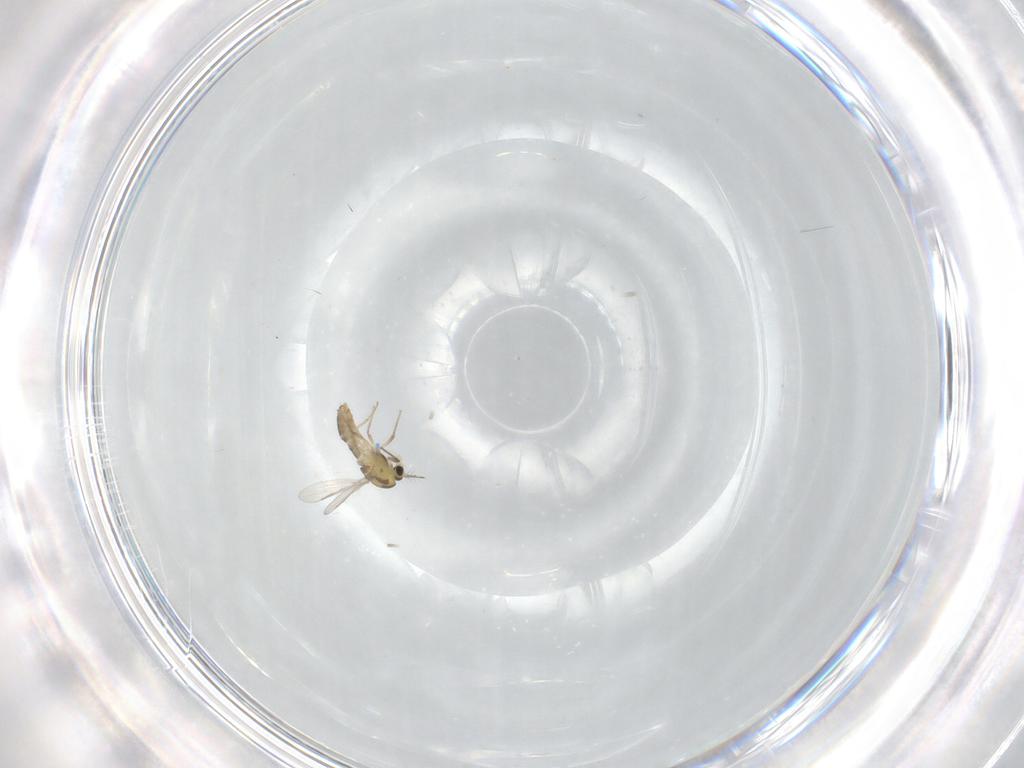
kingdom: Animalia
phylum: Arthropoda
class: Insecta
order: Diptera
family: Chironomidae
